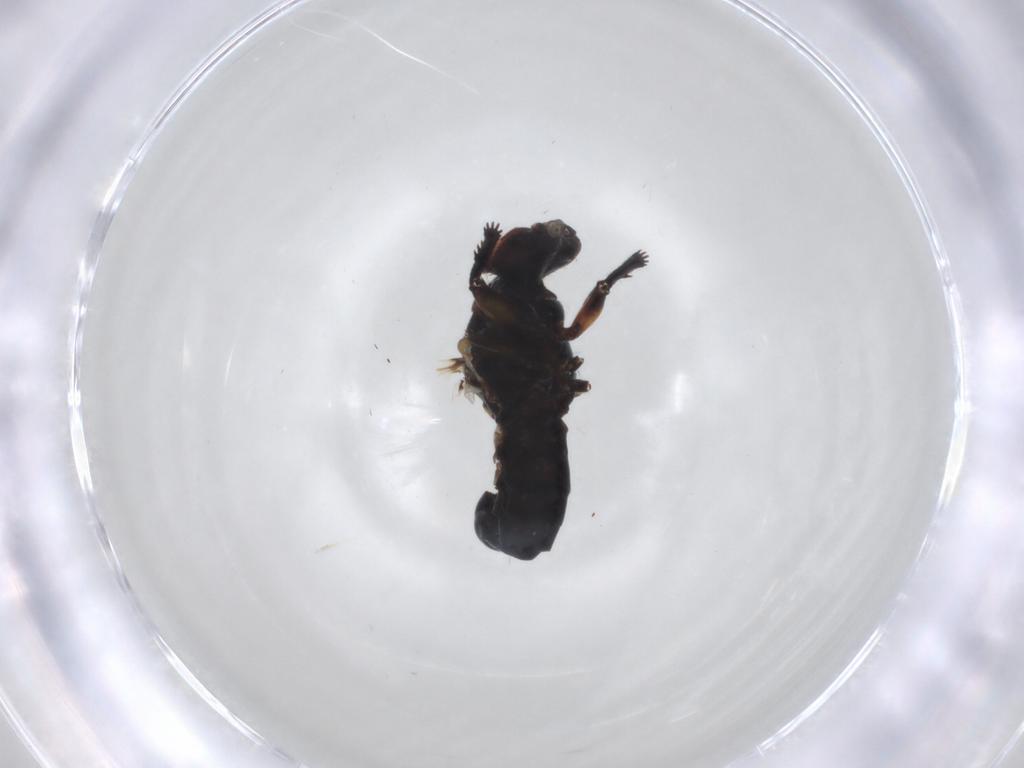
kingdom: Animalia
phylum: Arthropoda
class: Insecta
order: Diptera
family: Bibionidae
